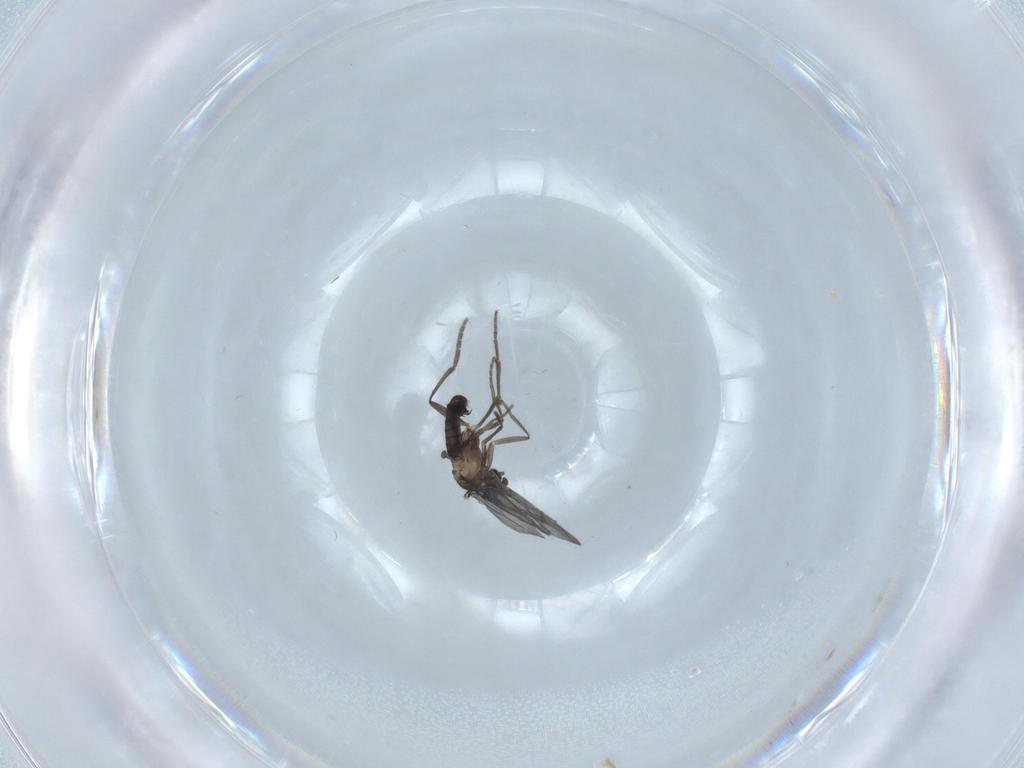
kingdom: Animalia
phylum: Arthropoda
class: Insecta
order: Diptera
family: Phoridae
